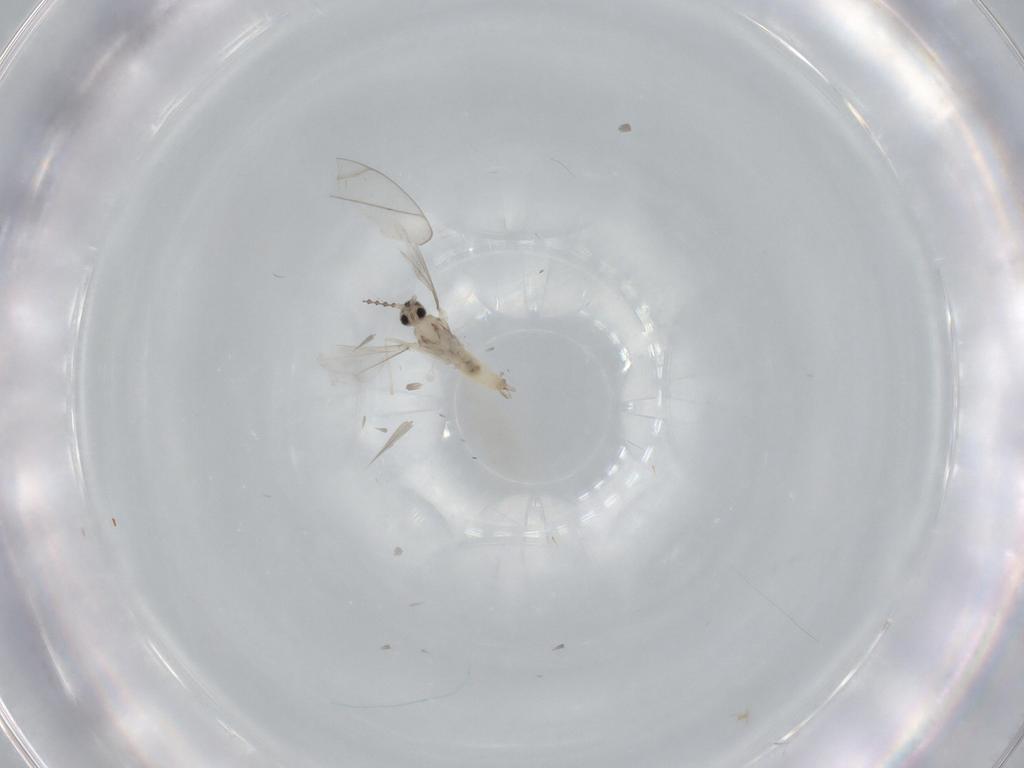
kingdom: Animalia
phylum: Arthropoda
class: Insecta
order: Diptera
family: Cecidomyiidae
